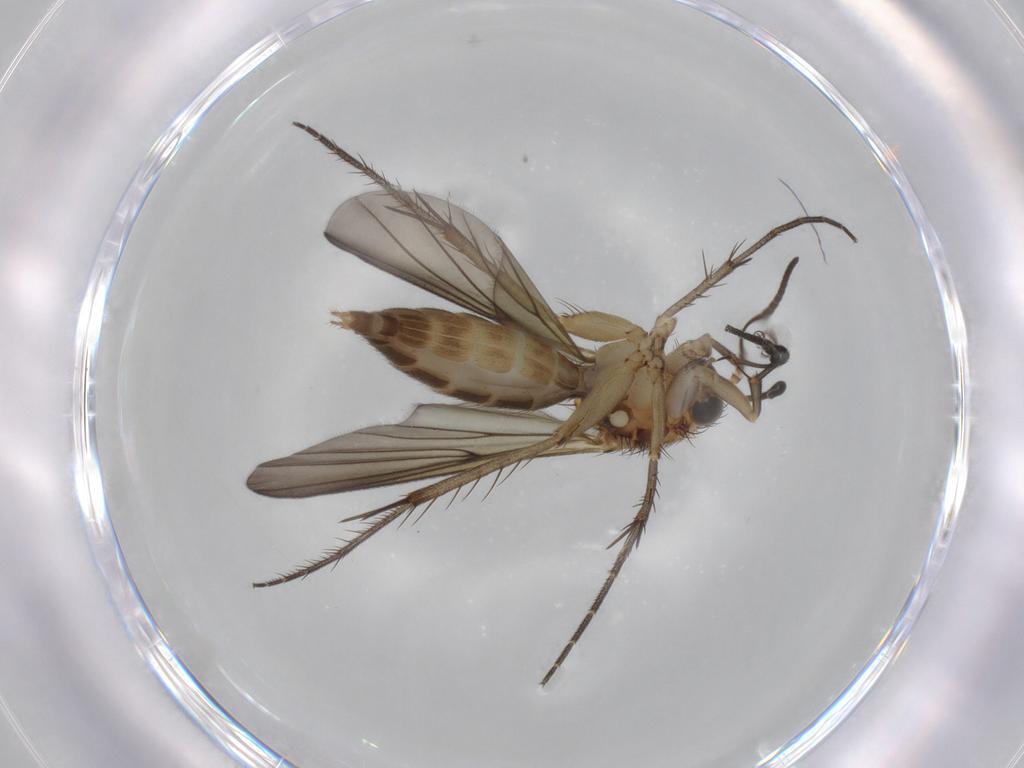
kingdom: Animalia
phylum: Arthropoda
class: Insecta
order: Diptera
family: Mycetophilidae
